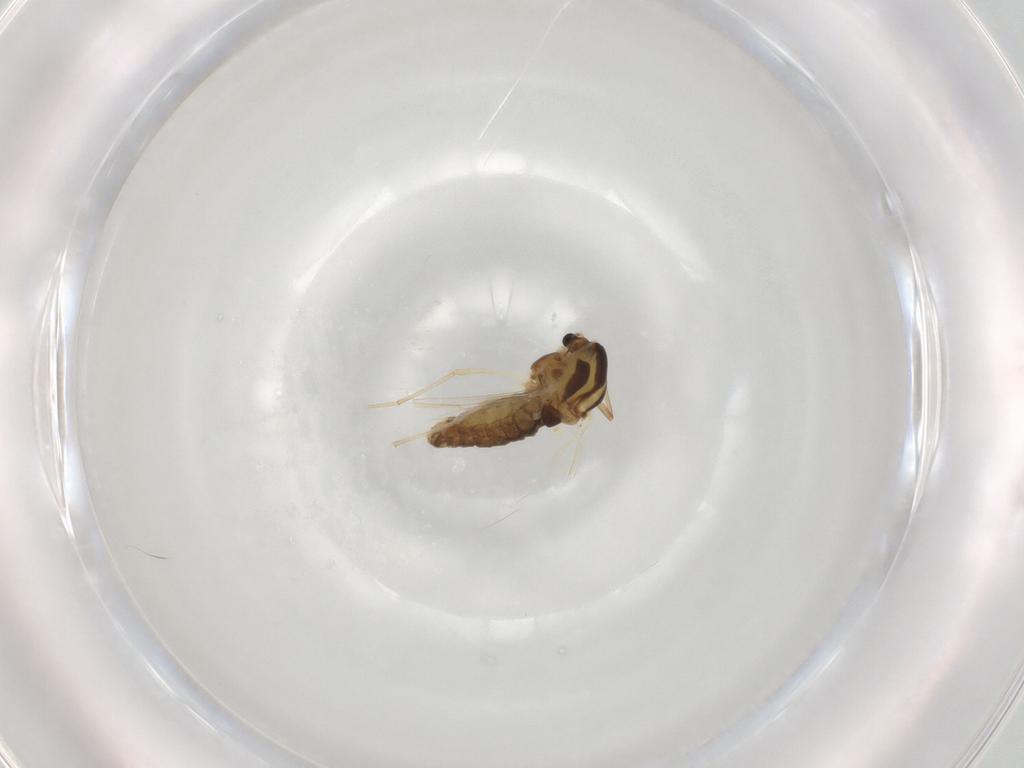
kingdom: Animalia
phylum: Arthropoda
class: Insecta
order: Diptera
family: Chironomidae
